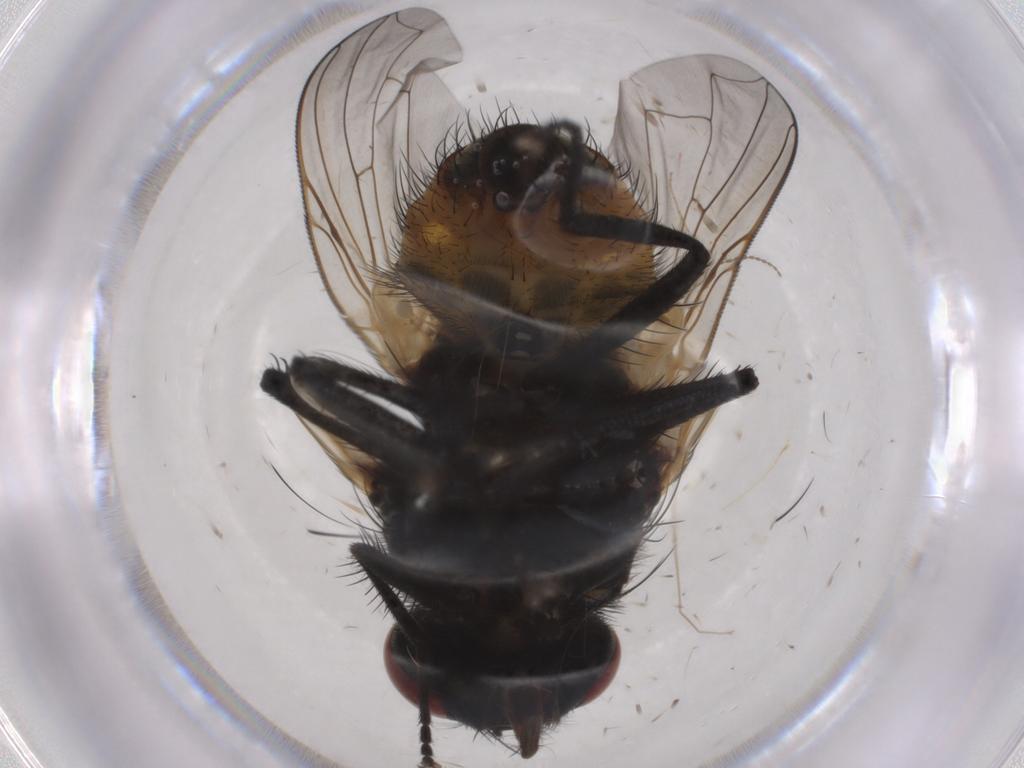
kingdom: Animalia
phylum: Arthropoda
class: Insecta
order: Diptera
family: Muscidae
